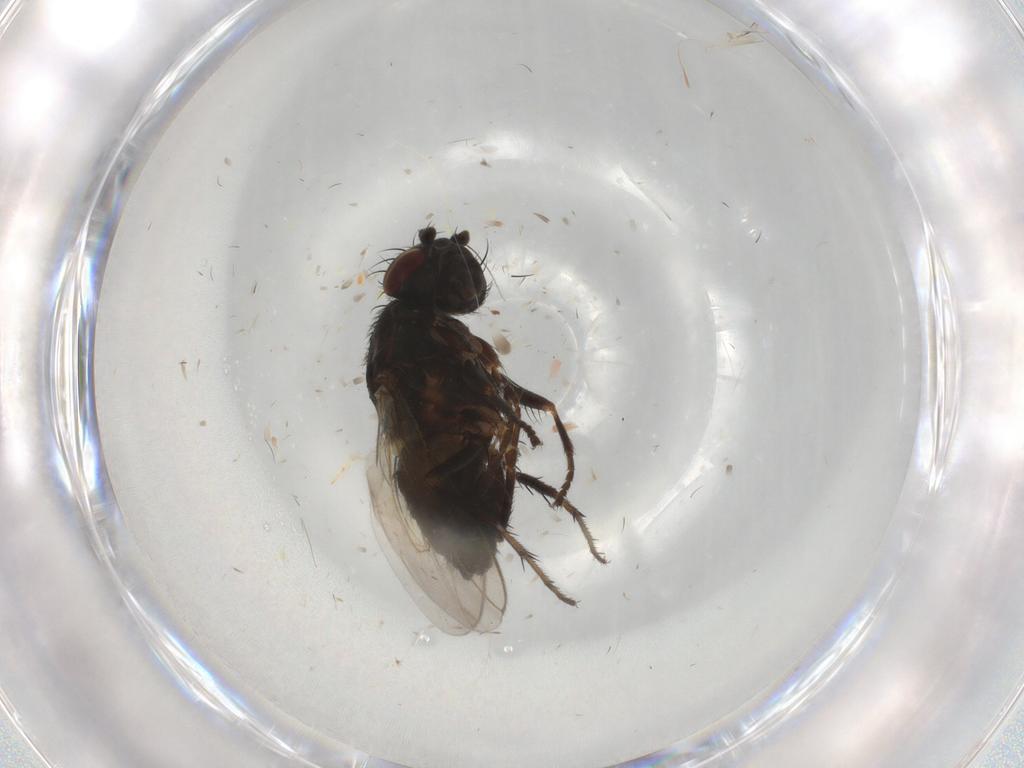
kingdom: Animalia
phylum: Arthropoda
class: Insecta
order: Diptera
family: Sphaeroceridae
